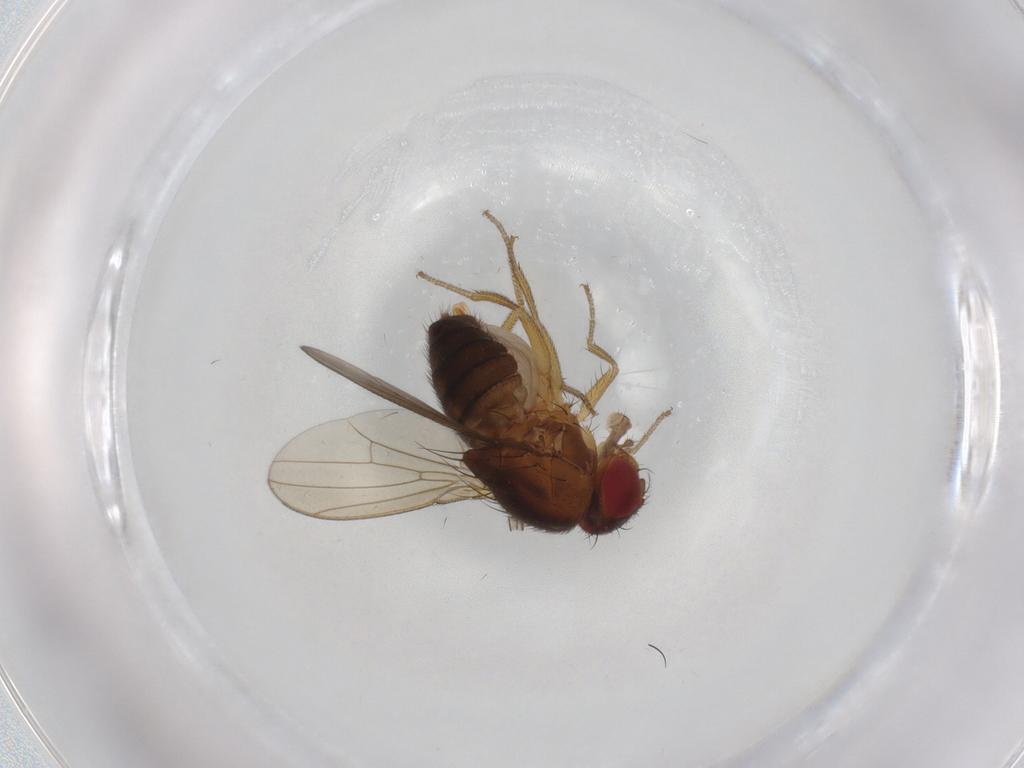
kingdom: Animalia
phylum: Arthropoda
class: Insecta
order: Diptera
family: Drosophilidae
